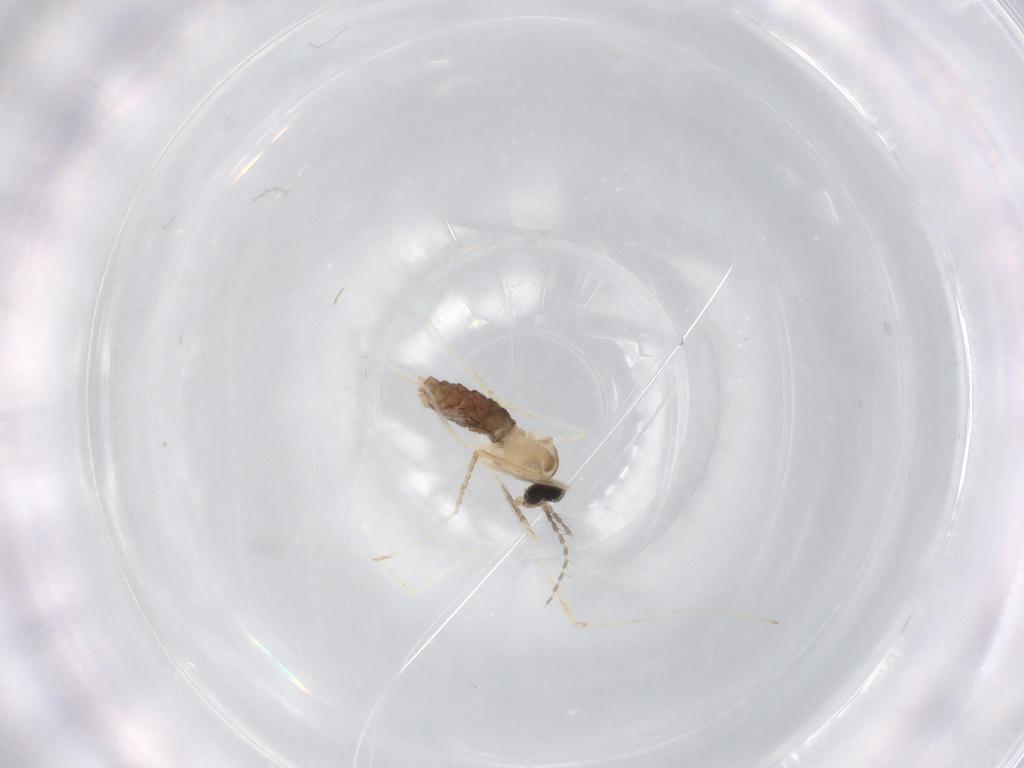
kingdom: Animalia
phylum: Arthropoda
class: Insecta
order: Diptera
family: Cecidomyiidae
